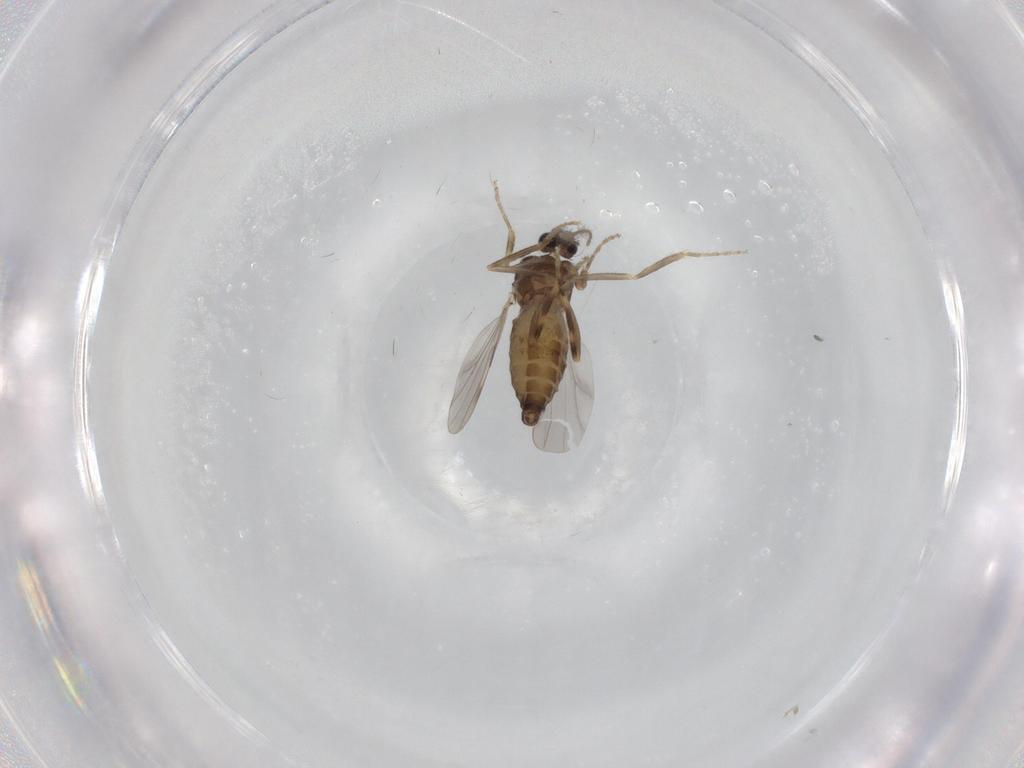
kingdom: Animalia
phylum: Arthropoda
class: Insecta
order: Diptera
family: Ceratopogonidae
